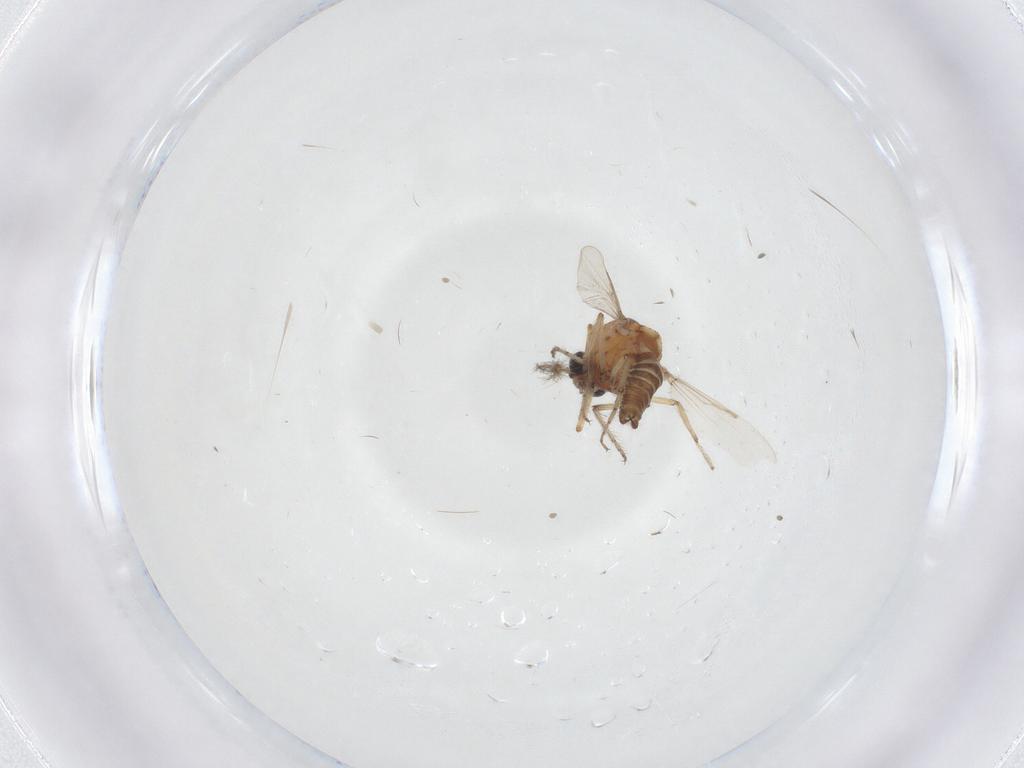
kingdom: Animalia
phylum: Arthropoda
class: Insecta
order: Diptera
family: Ceratopogonidae
